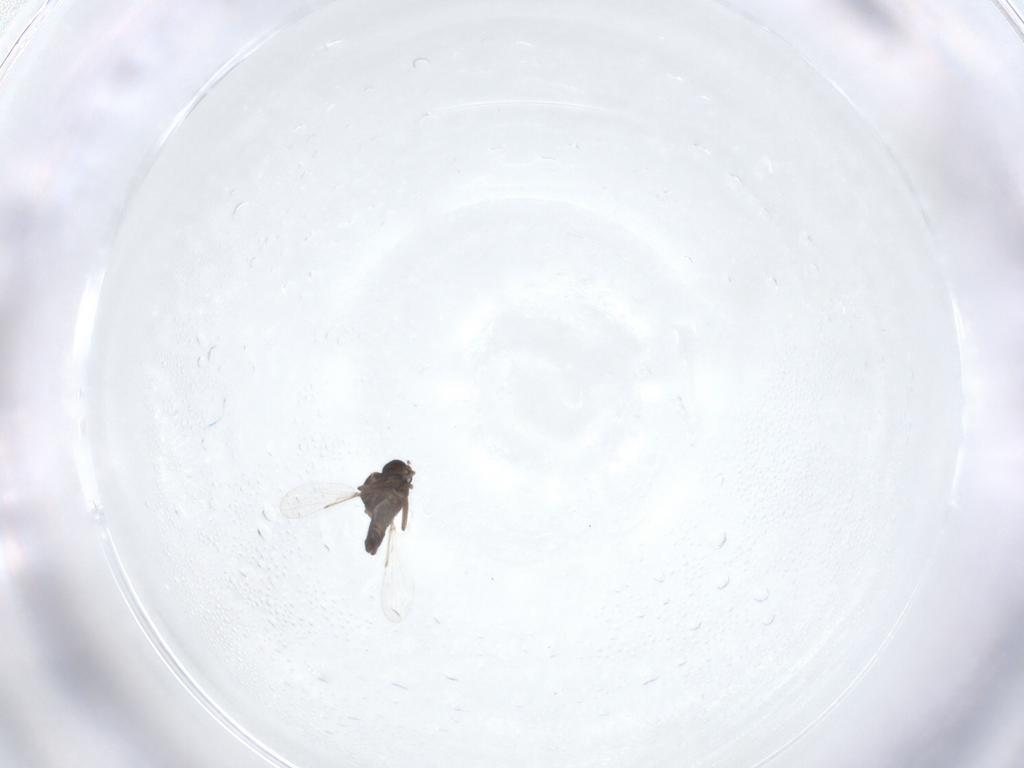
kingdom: Animalia
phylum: Arthropoda
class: Insecta
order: Diptera
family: Ceratopogonidae
